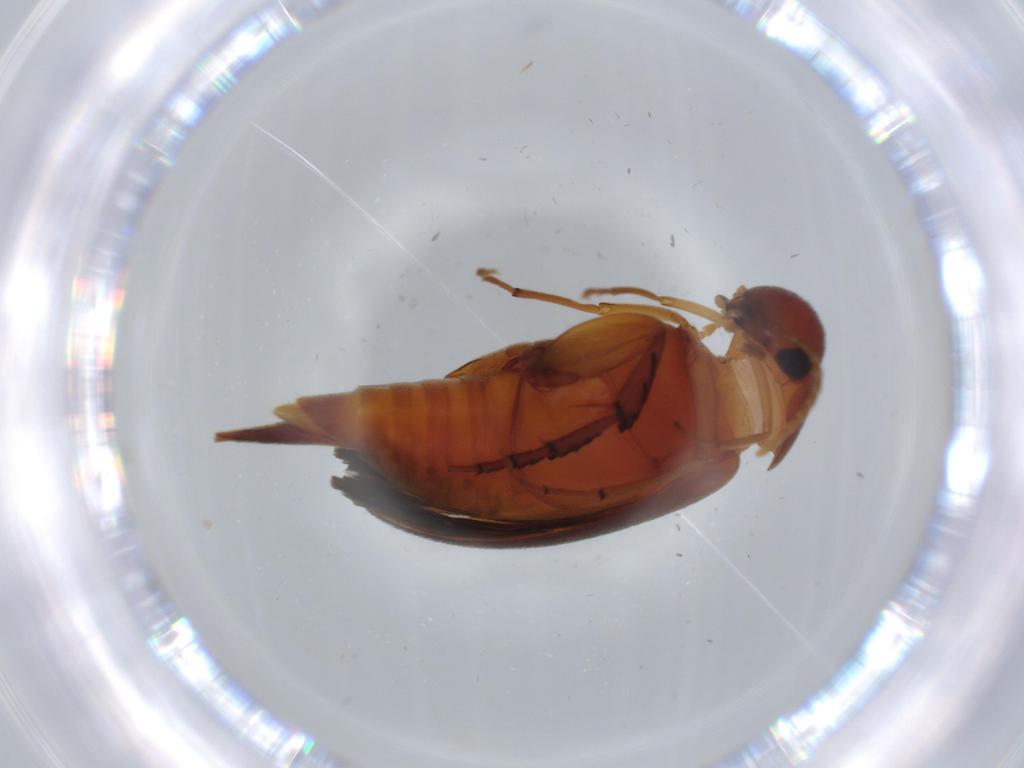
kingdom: Animalia
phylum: Arthropoda
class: Insecta
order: Coleoptera
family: Mordellidae
